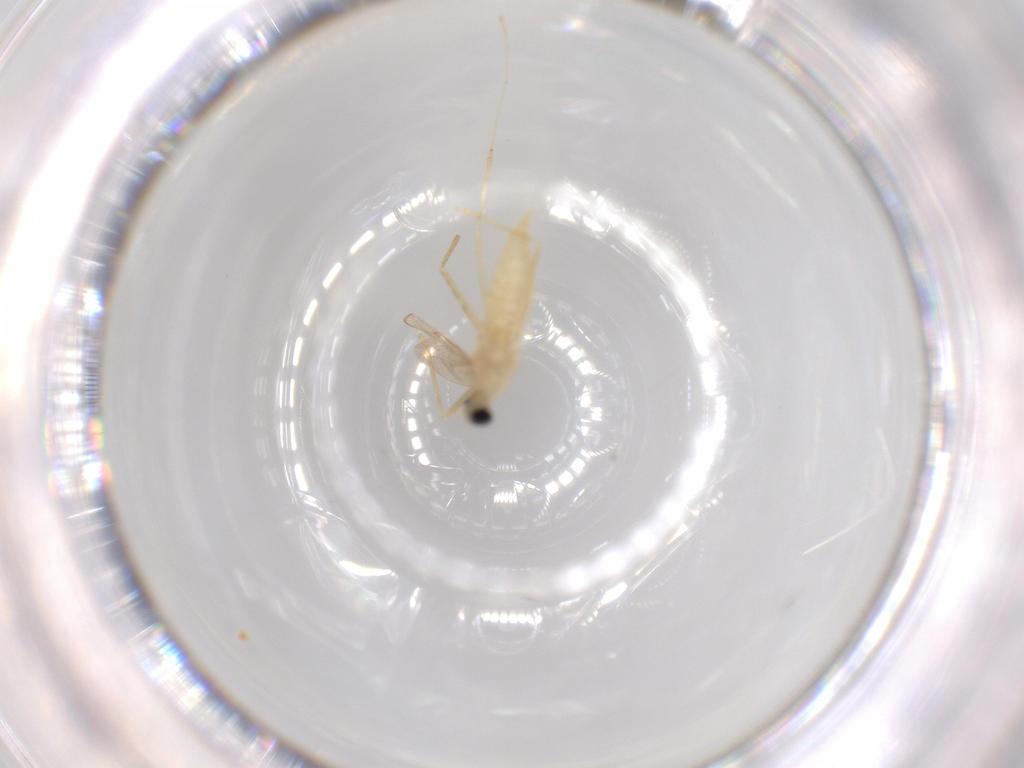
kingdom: Animalia
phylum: Arthropoda
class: Insecta
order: Diptera
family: Cecidomyiidae
